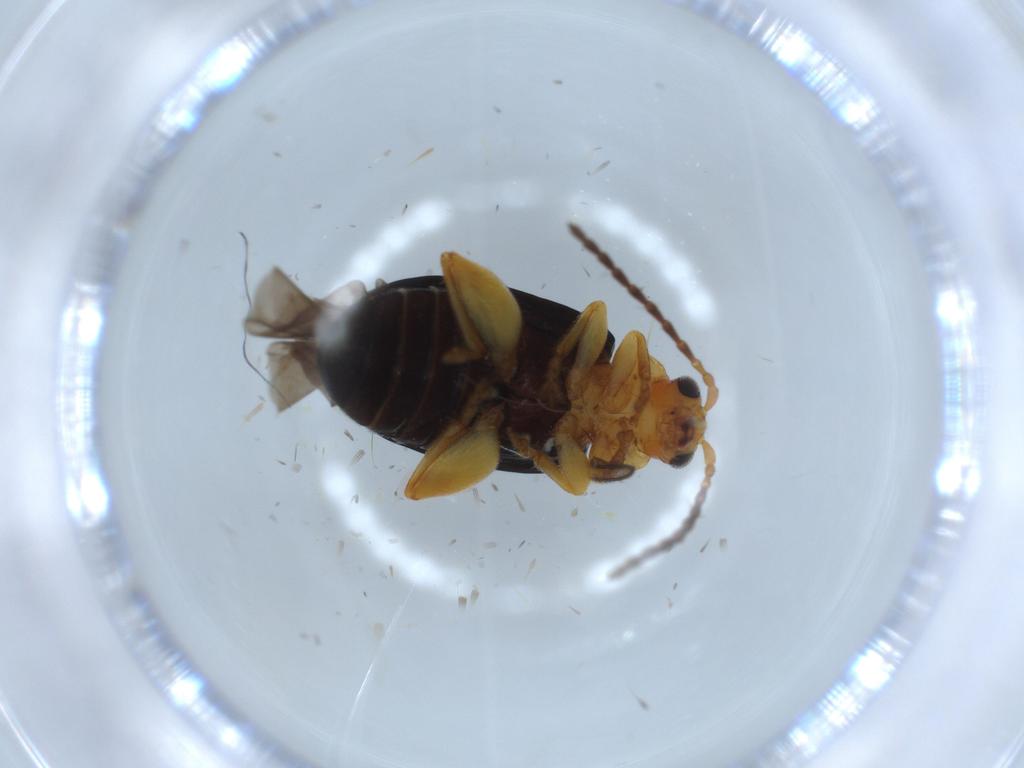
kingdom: Animalia
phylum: Arthropoda
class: Insecta
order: Coleoptera
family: Chrysomelidae
